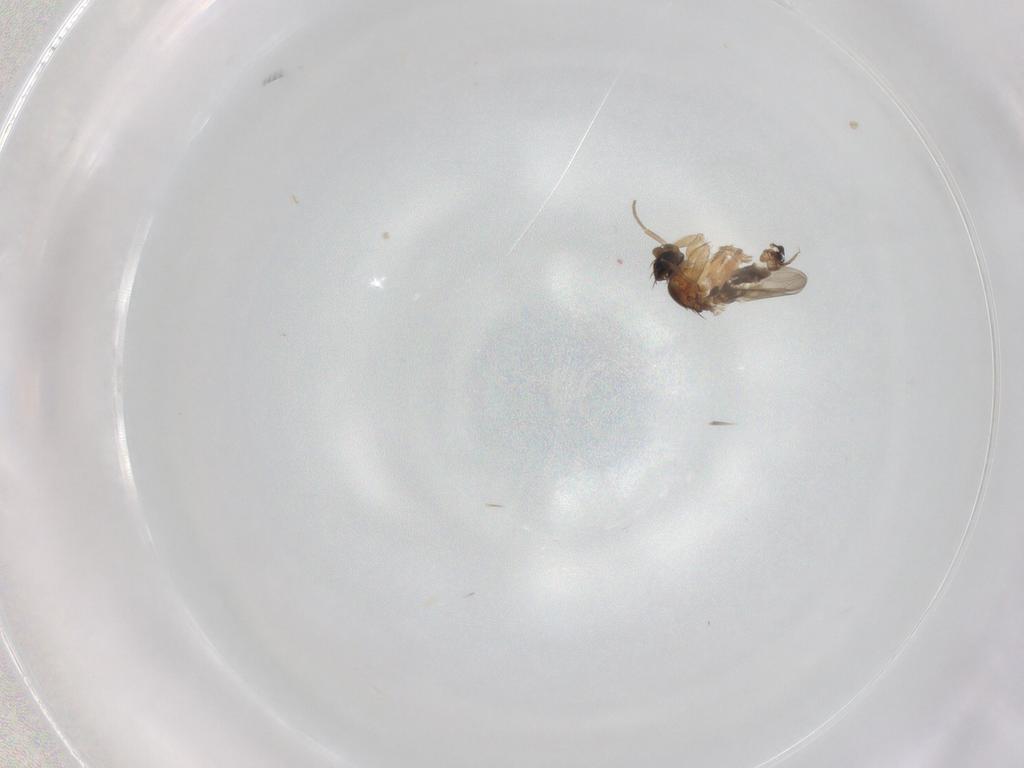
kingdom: Animalia
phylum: Arthropoda
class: Insecta
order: Diptera
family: Phoridae
